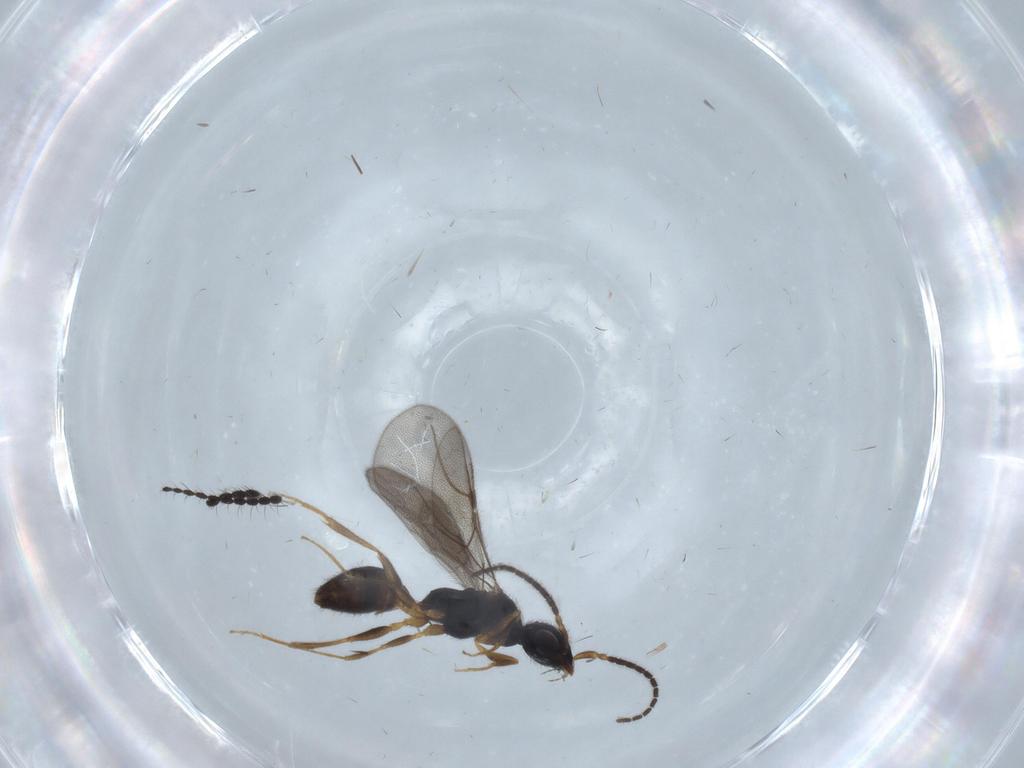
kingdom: Animalia
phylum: Arthropoda
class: Insecta
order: Hymenoptera
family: Bethylidae
